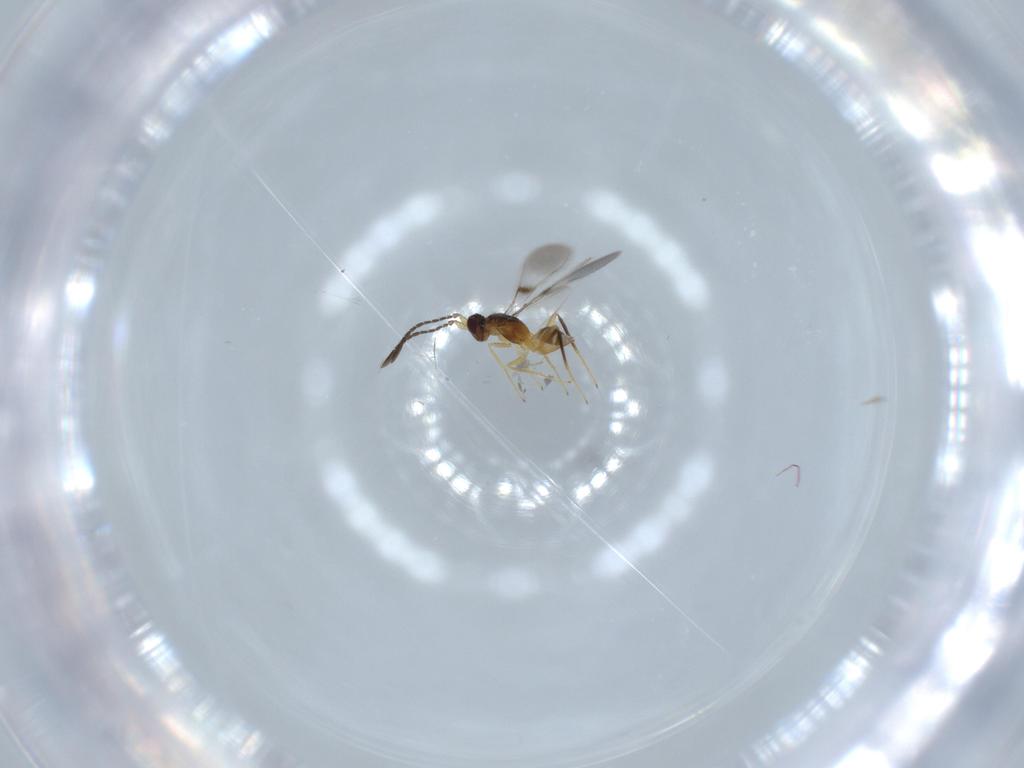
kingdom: Animalia
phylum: Arthropoda
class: Insecta
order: Hymenoptera
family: Mymaridae
